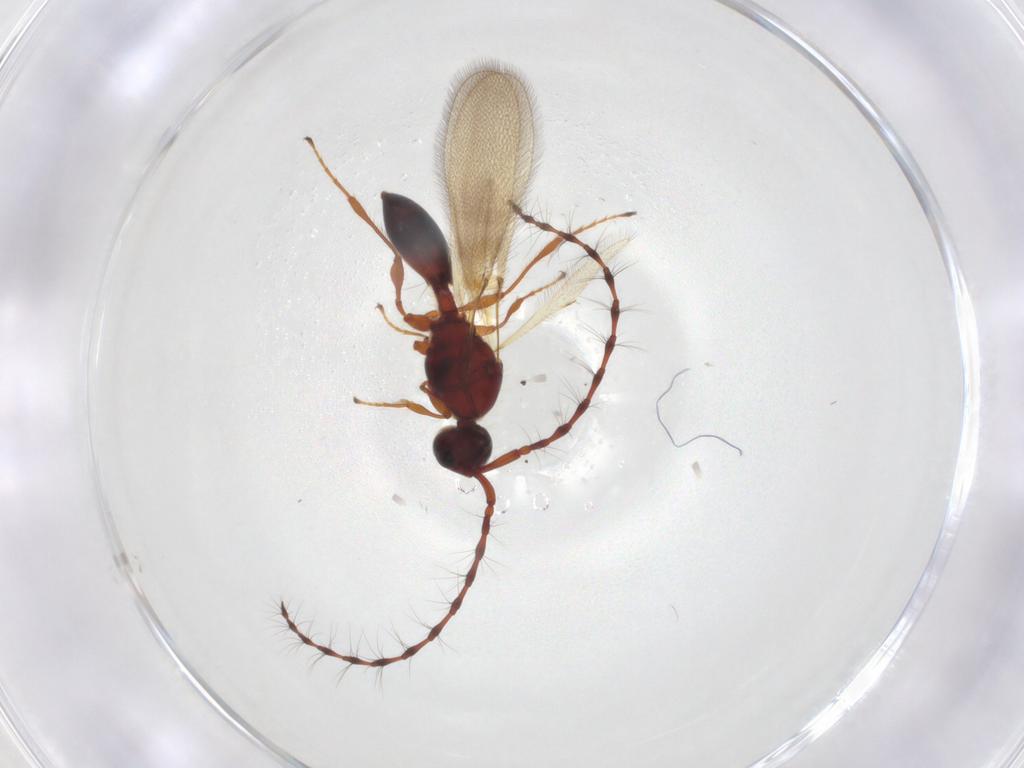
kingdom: Animalia
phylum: Arthropoda
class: Insecta
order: Hymenoptera
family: Diapriidae
